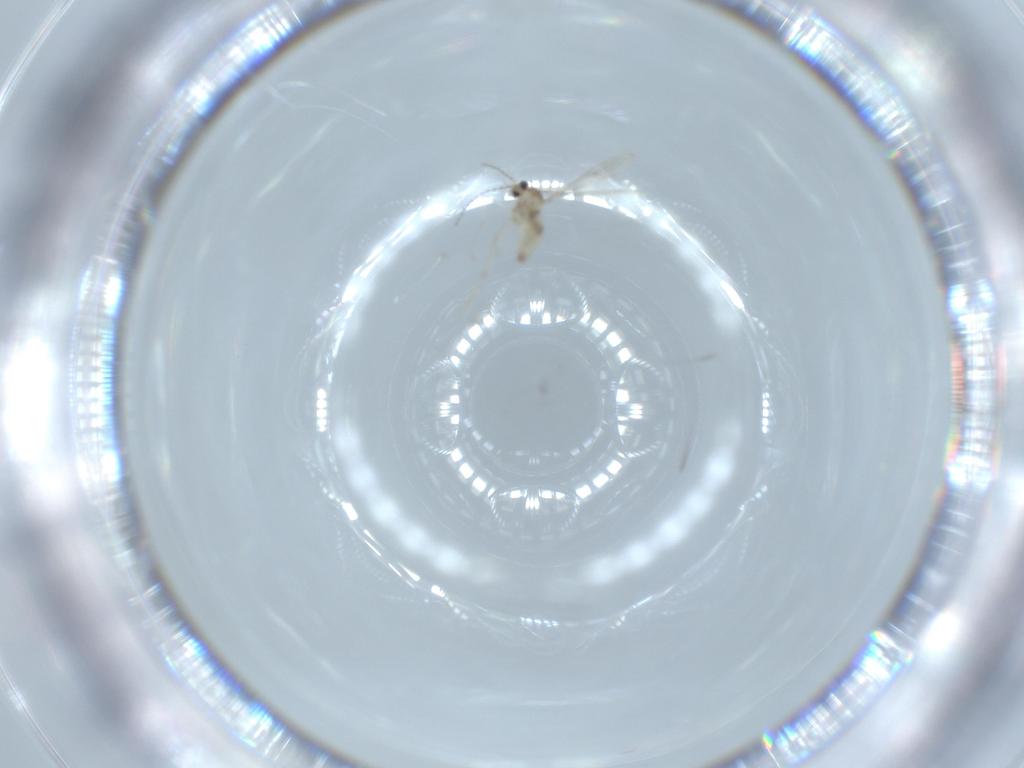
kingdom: Animalia
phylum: Arthropoda
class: Insecta
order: Diptera
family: Cecidomyiidae
